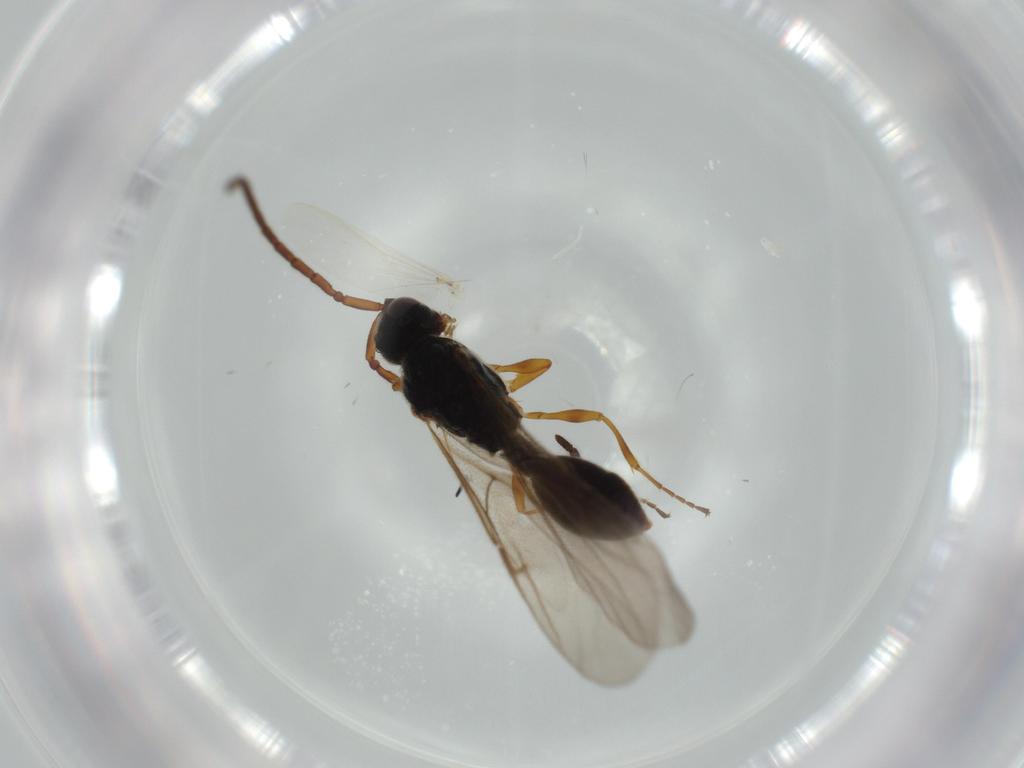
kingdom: Animalia
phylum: Arthropoda
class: Insecta
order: Hymenoptera
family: Diapriidae
